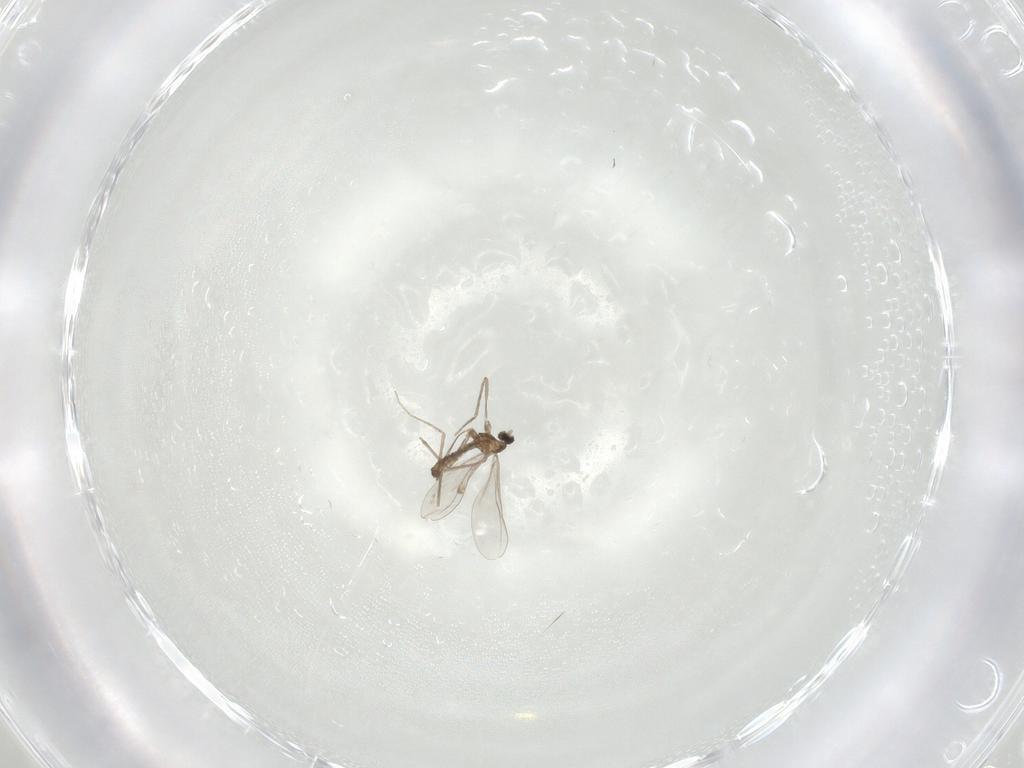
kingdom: Animalia
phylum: Arthropoda
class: Insecta
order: Diptera
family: Cecidomyiidae
